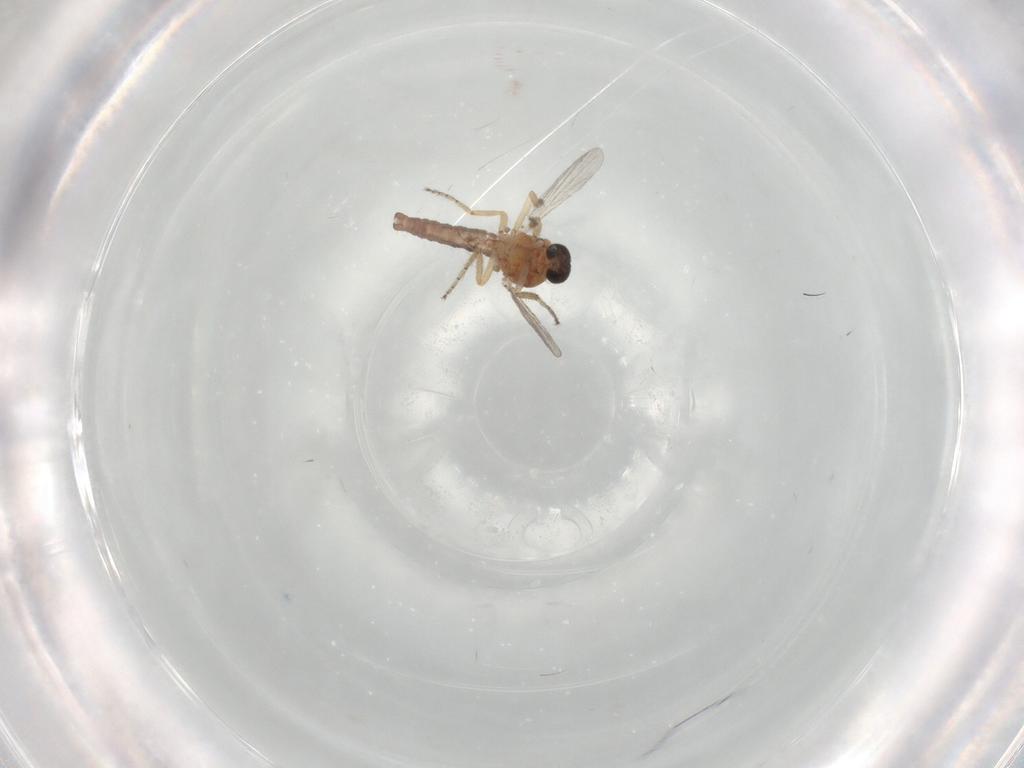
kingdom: Animalia
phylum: Arthropoda
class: Insecta
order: Diptera
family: Ceratopogonidae
